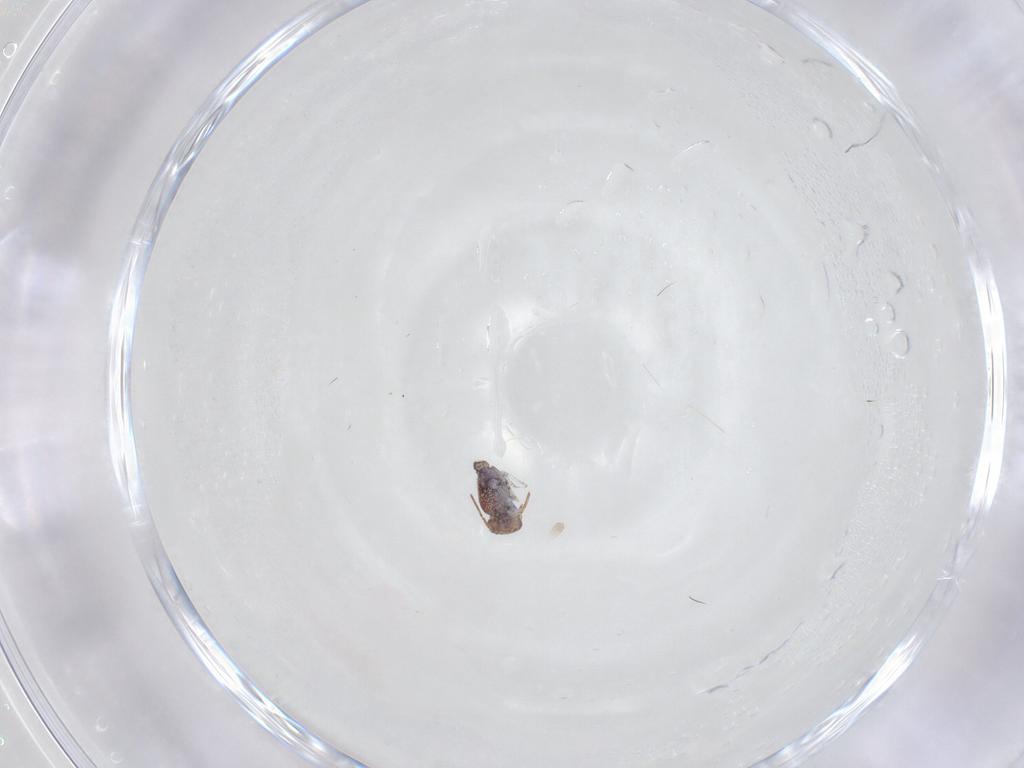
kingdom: Animalia
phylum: Arthropoda
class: Collembola
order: Symphypleona
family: Bourletiellidae
